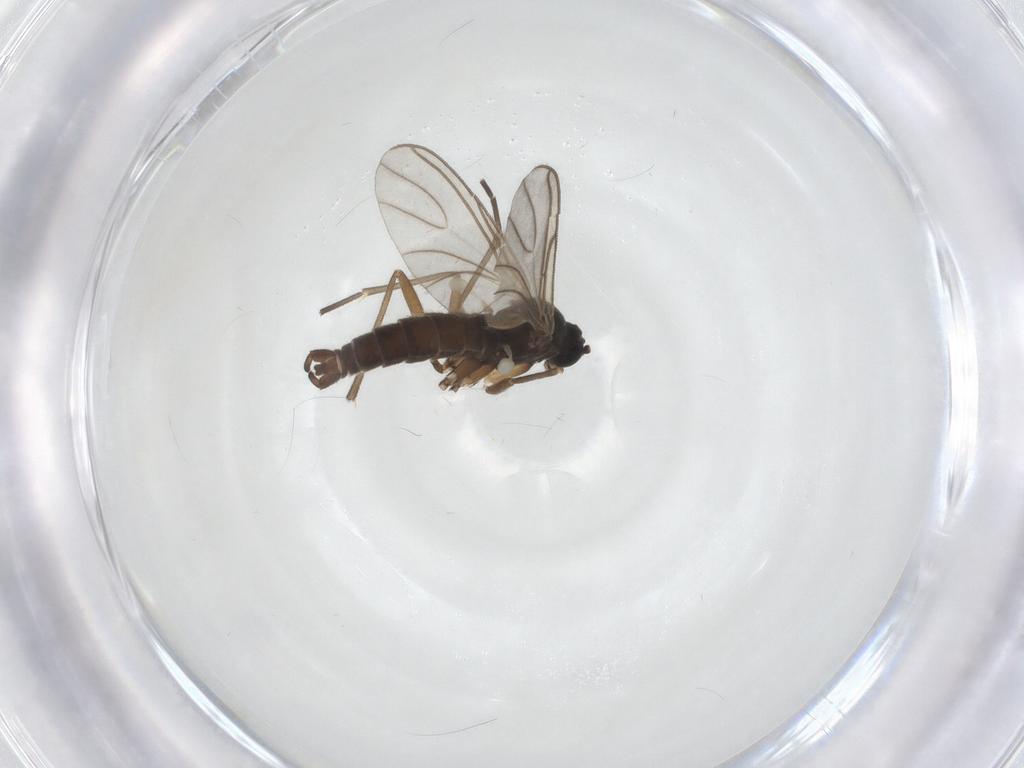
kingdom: Animalia
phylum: Arthropoda
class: Insecta
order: Diptera
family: Sciaridae
